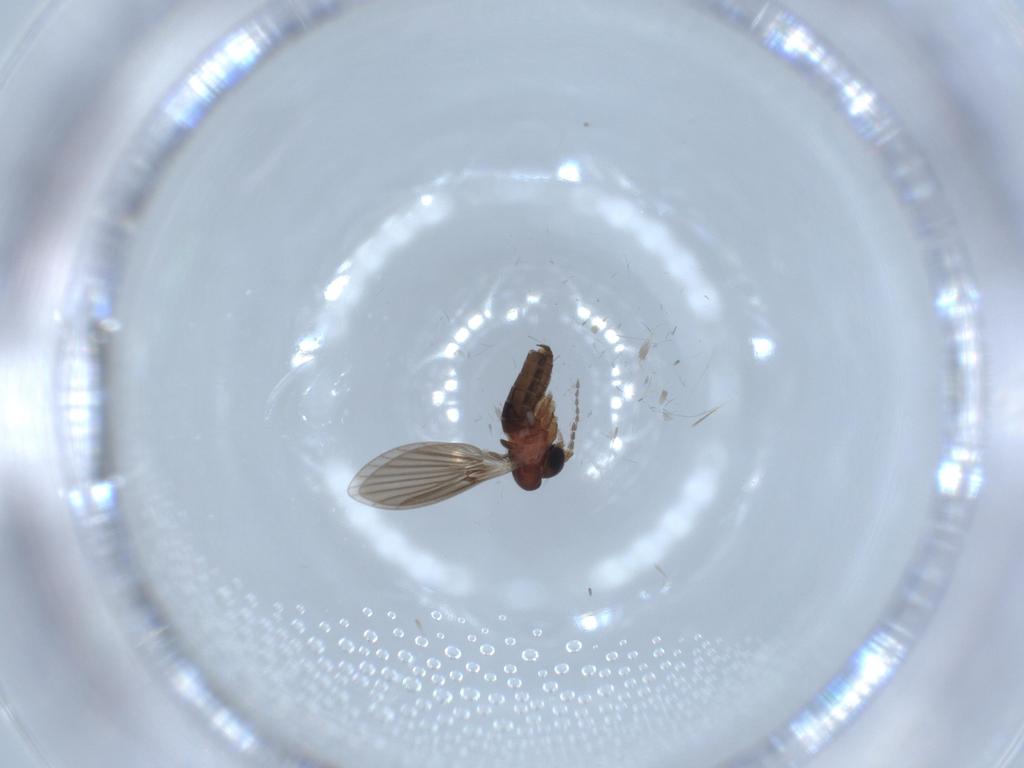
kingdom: Animalia
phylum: Arthropoda
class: Insecta
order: Diptera
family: Psychodidae
